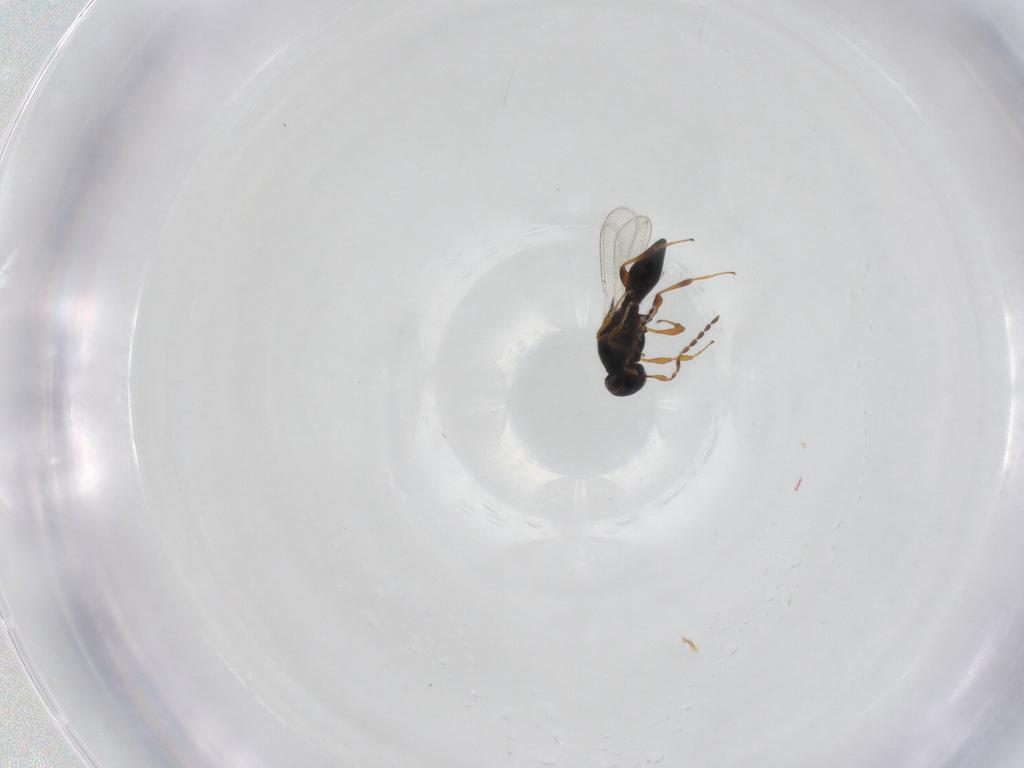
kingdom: Animalia
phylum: Arthropoda
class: Insecta
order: Hymenoptera
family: Platygastridae
